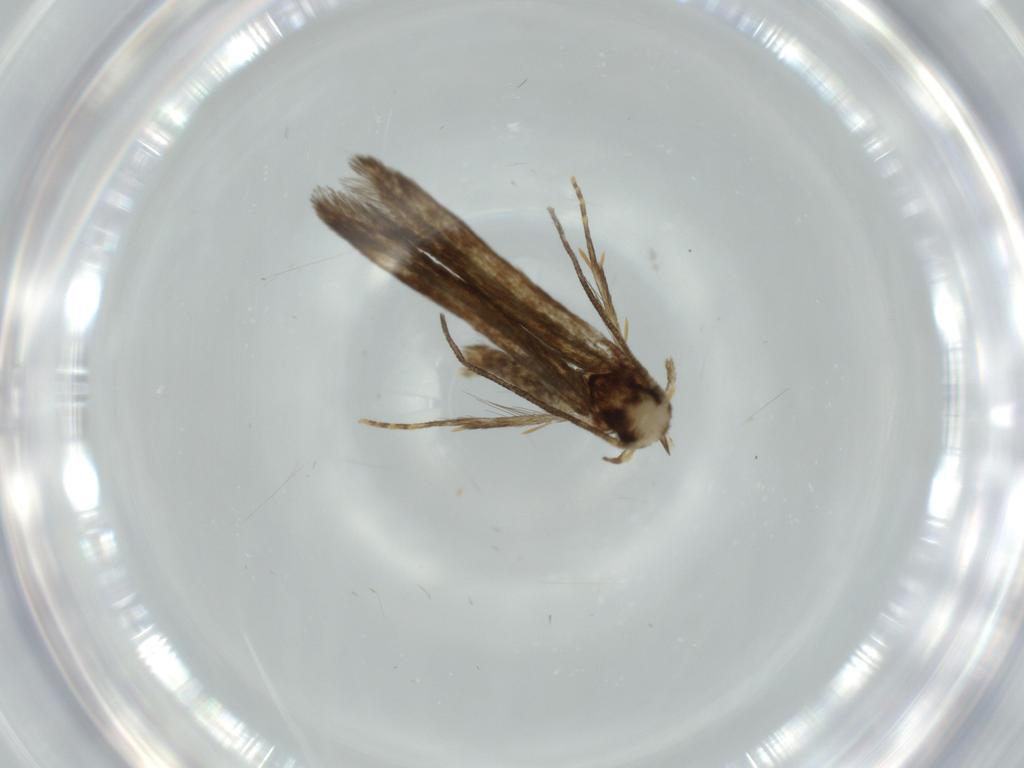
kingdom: Animalia
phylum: Arthropoda
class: Insecta
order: Lepidoptera
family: Tineidae
